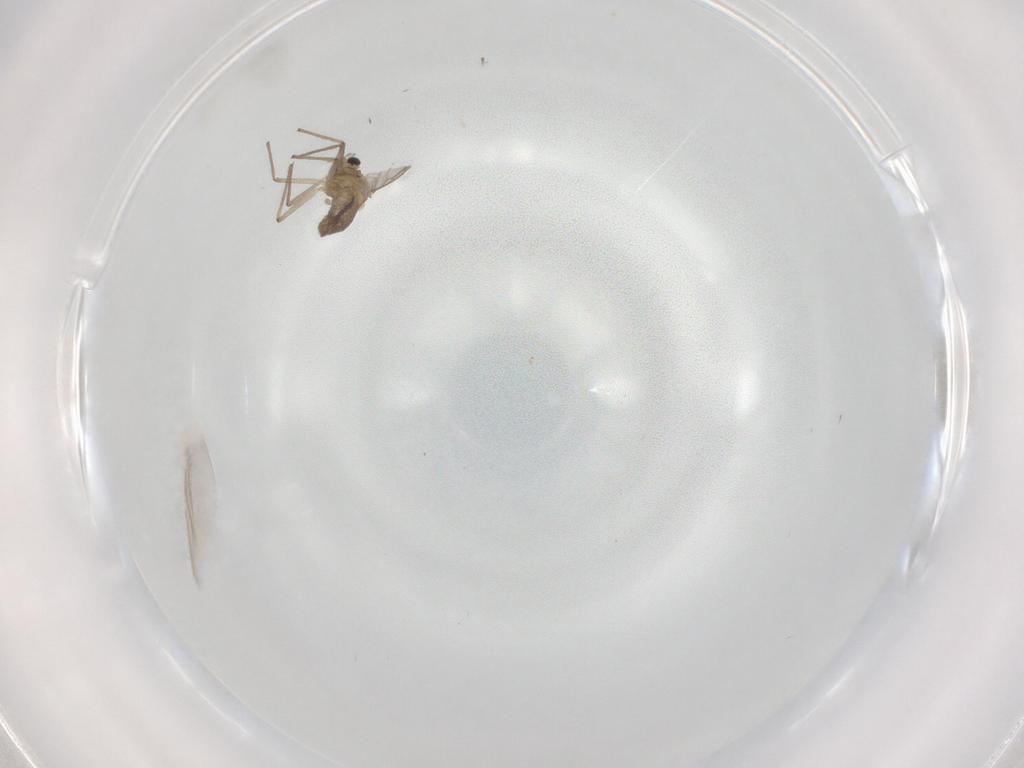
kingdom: Animalia
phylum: Arthropoda
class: Insecta
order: Diptera
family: Chironomidae
